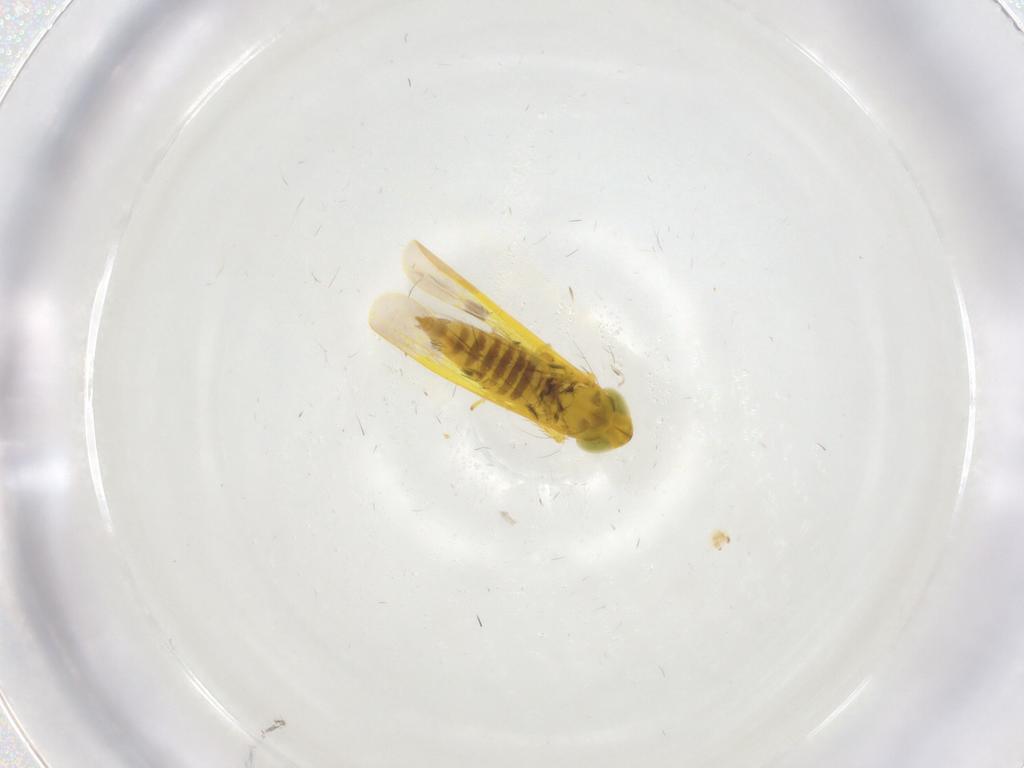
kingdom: Animalia
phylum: Arthropoda
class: Insecta
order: Hemiptera
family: Cicadellidae
